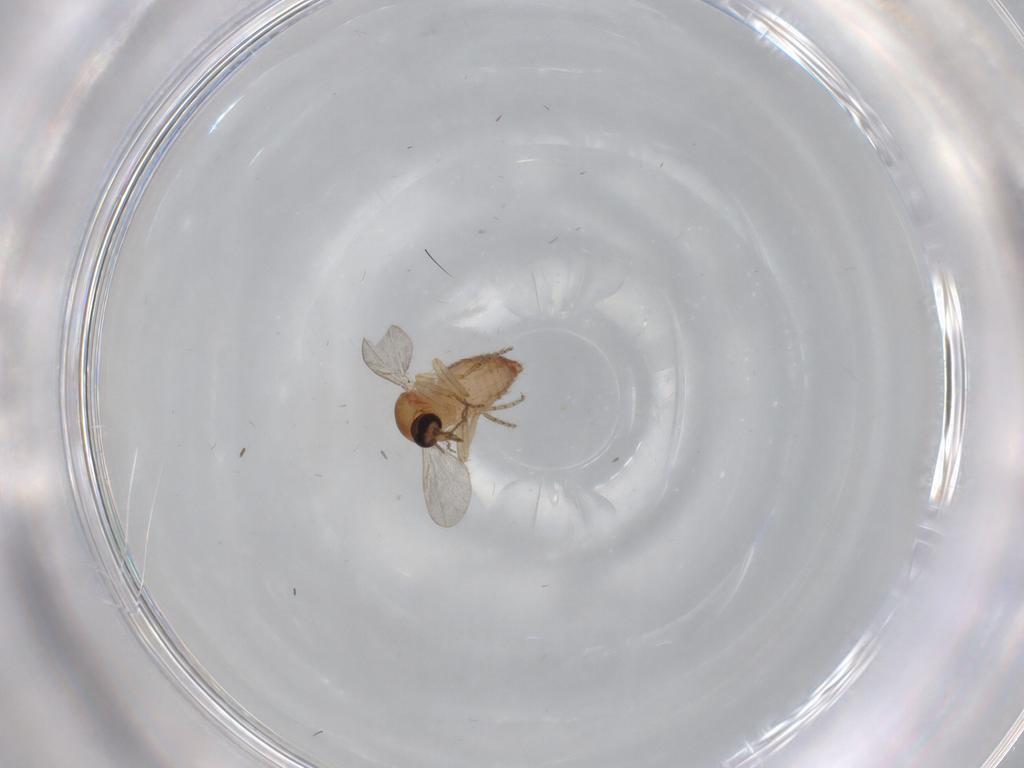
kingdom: Animalia
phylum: Arthropoda
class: Insecta
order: Diptera
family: Ceratopogonidae
